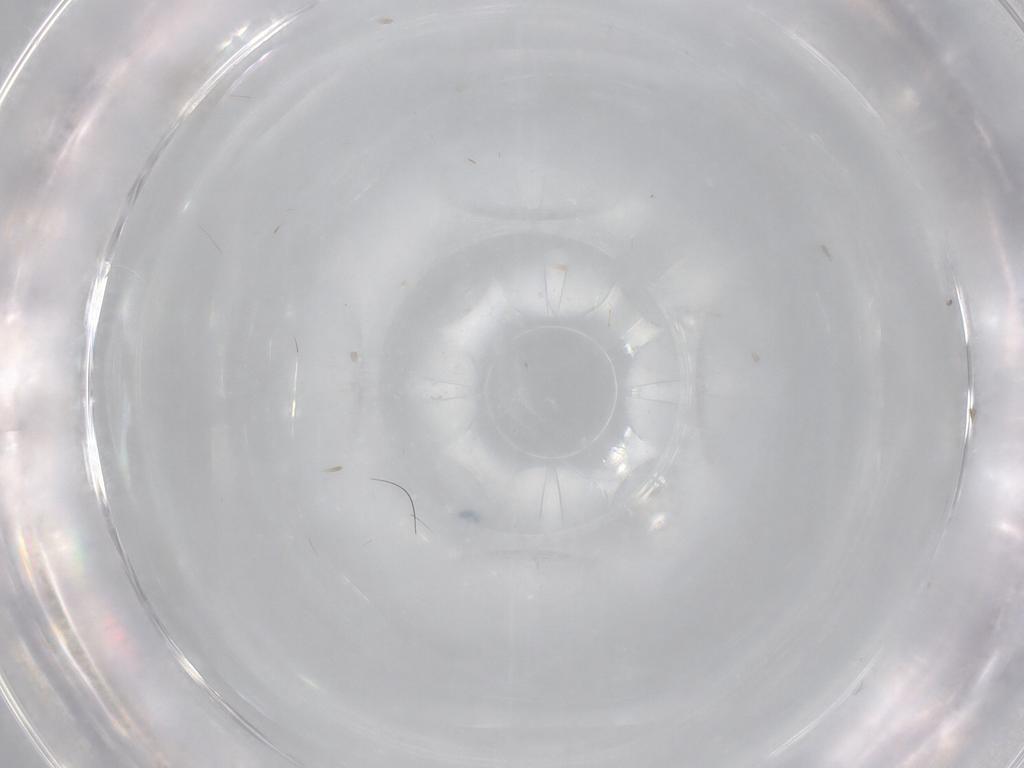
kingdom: Animalia
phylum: Arthropoda
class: Insecta
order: Hymenoptera
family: Ichneumonidae
